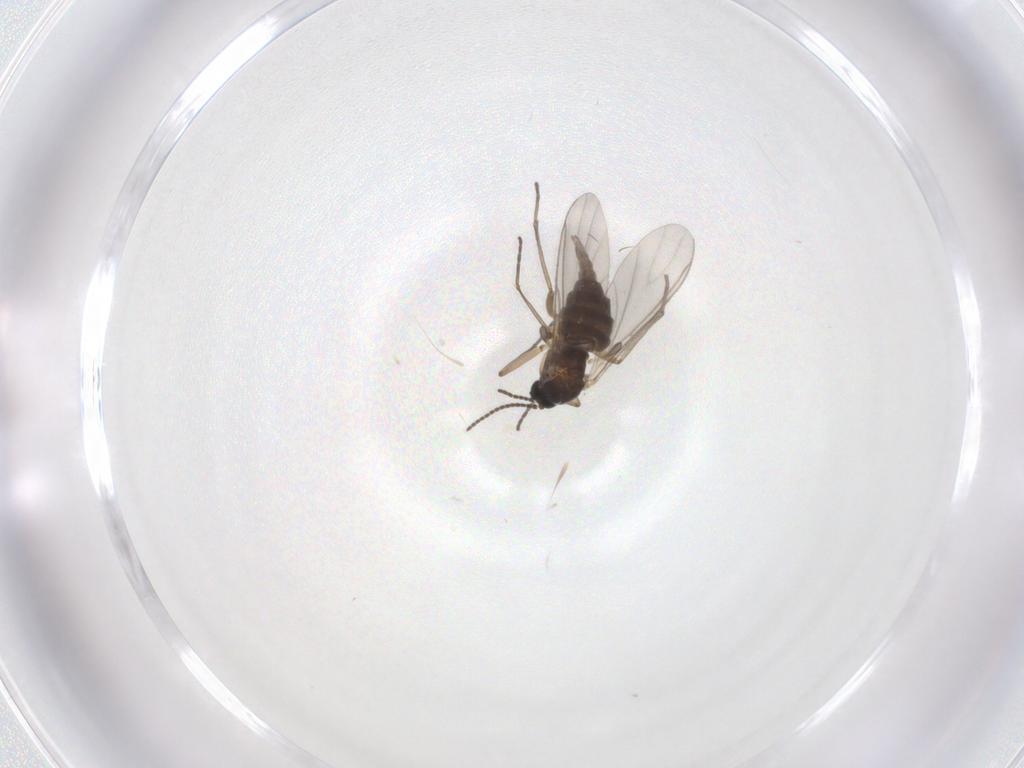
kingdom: Animalia
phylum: Arthropoda
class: Insecta
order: Diptera
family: Sciaridae
